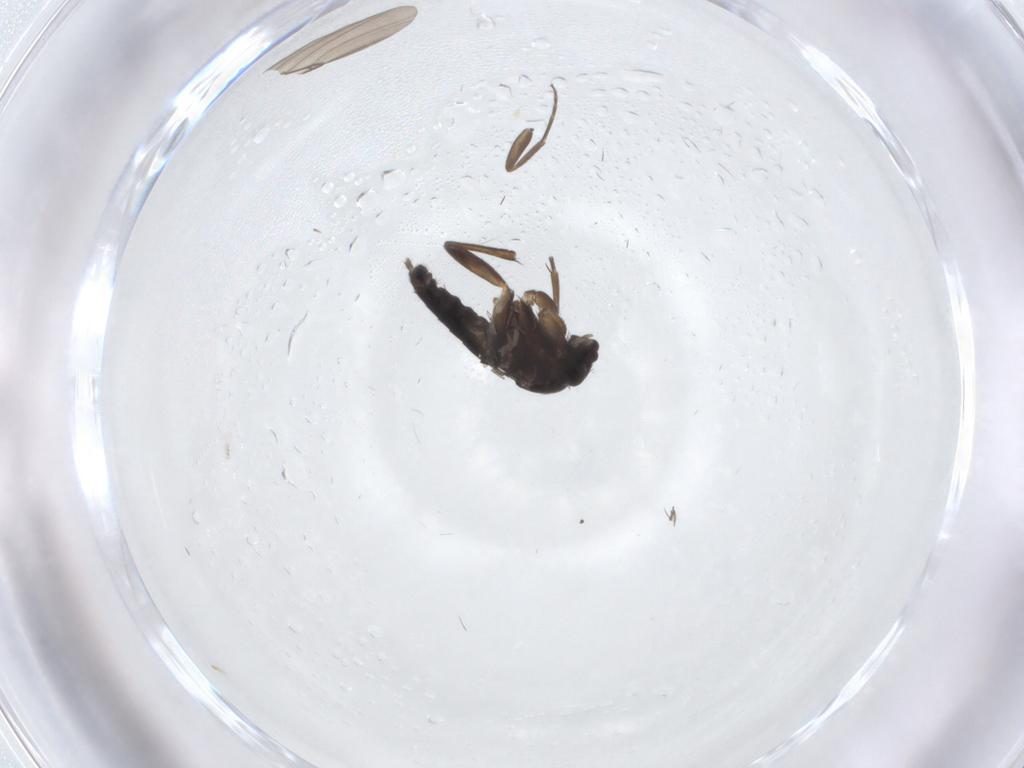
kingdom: Animalia
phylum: Arthropoda
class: Insecta
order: Diptera
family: Phoridae
